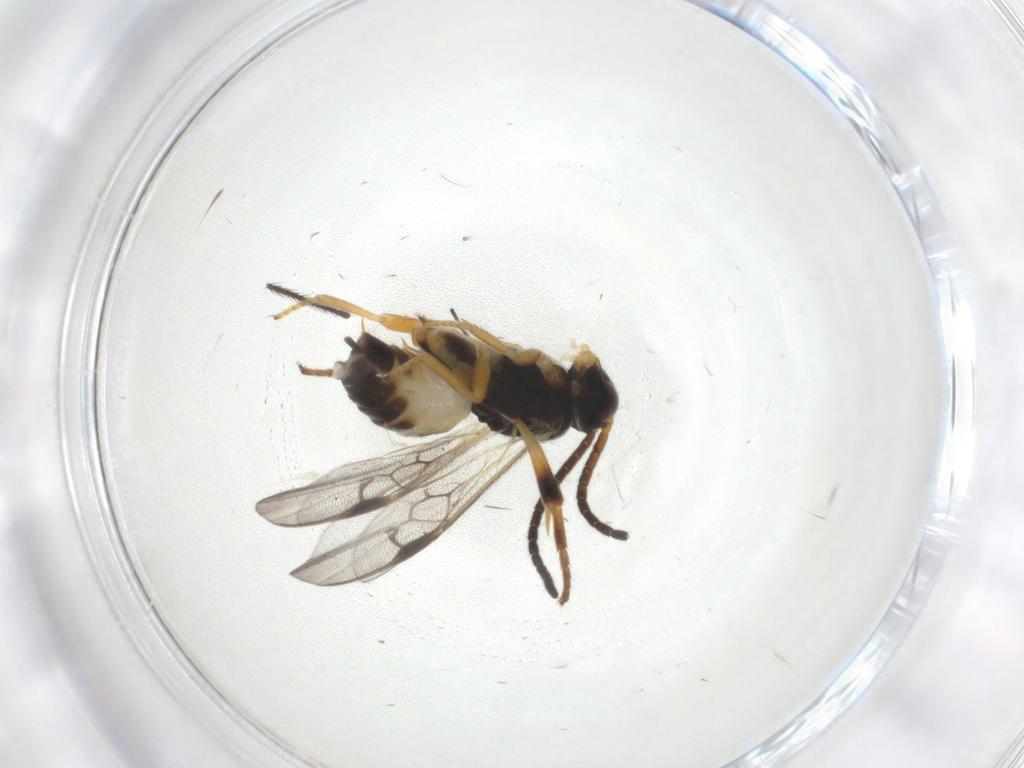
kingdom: Animalia
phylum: Arthropoda
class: Insecta
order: Hymenoptera
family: Braconidae
